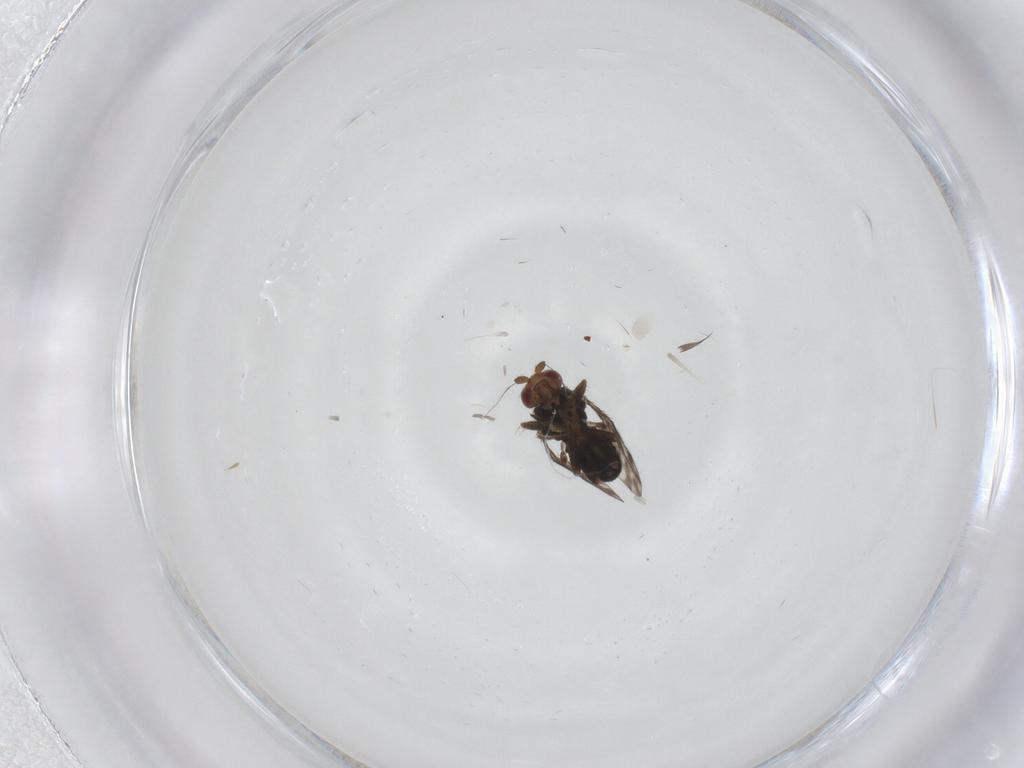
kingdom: Animalia
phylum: Arthropoda
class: Insecta
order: Diptera
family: Sphaeroceridae
